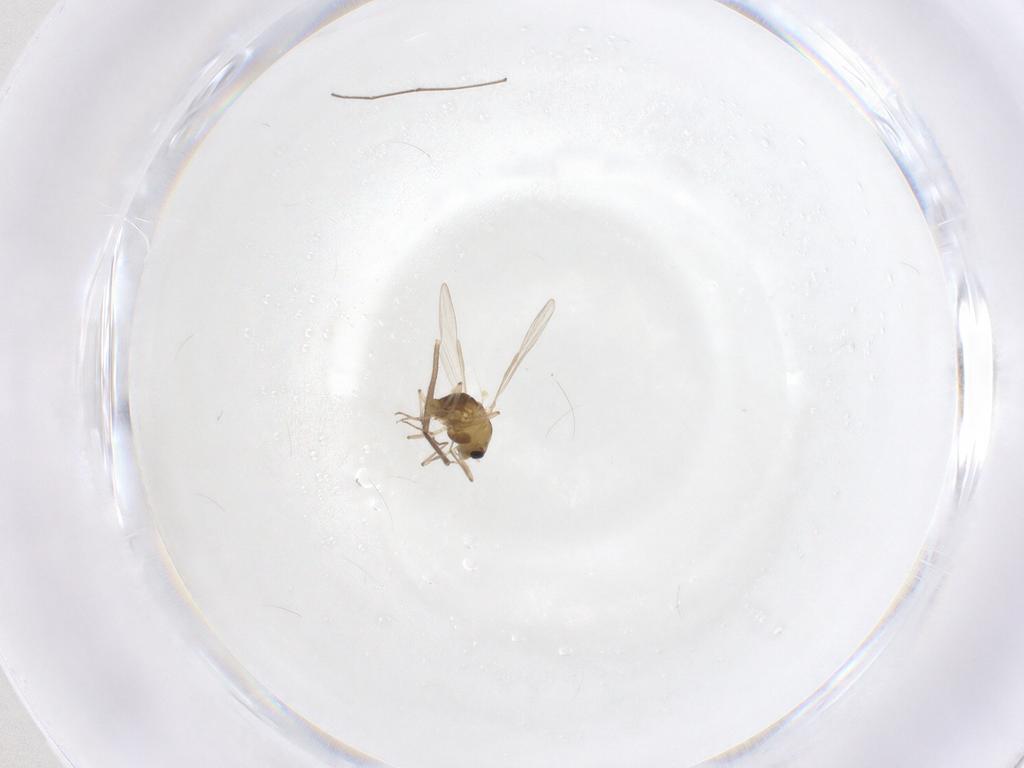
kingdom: Animalia
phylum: Arthropoda
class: Insecta
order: Diptera
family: Chironomidae
